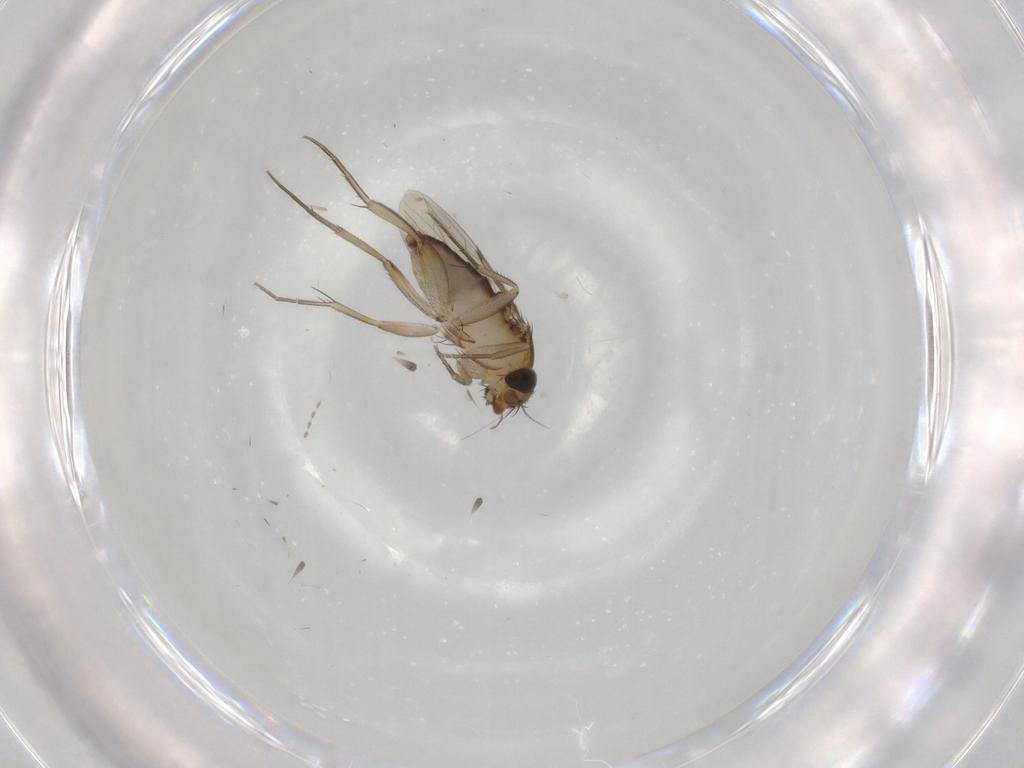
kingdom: Animalia
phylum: Arthropoda
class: Insecta
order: Diptera
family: Phoridae
